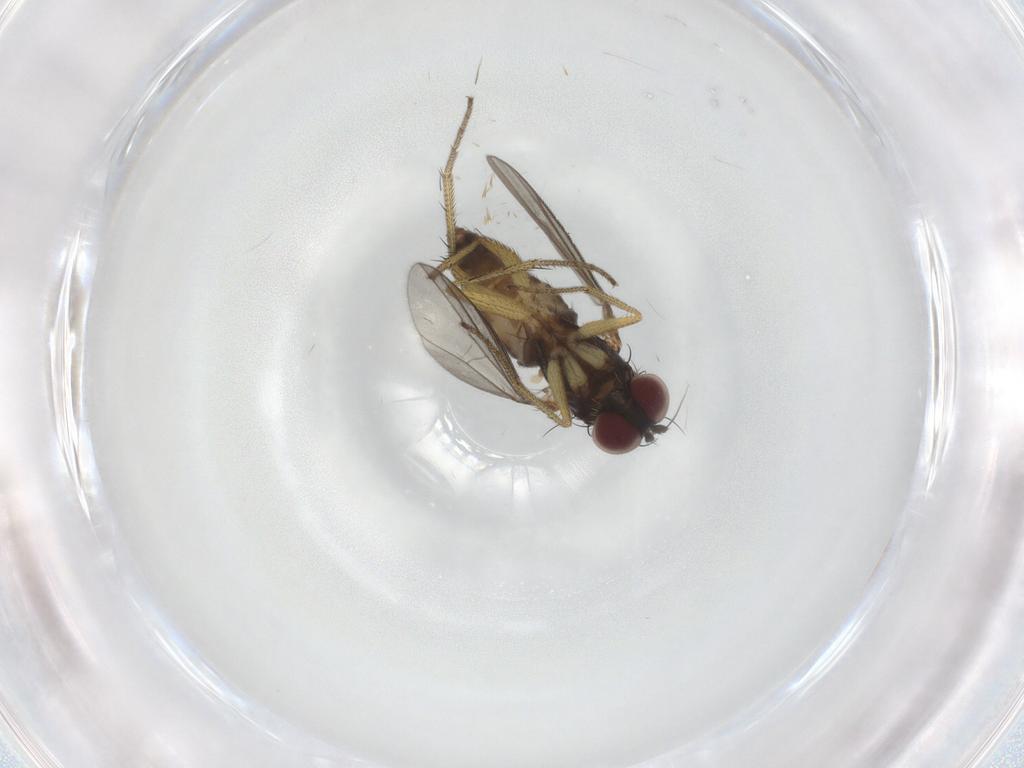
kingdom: Animalia
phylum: Arthropoda
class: Insecta
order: Diptera
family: Dolichopodidae
